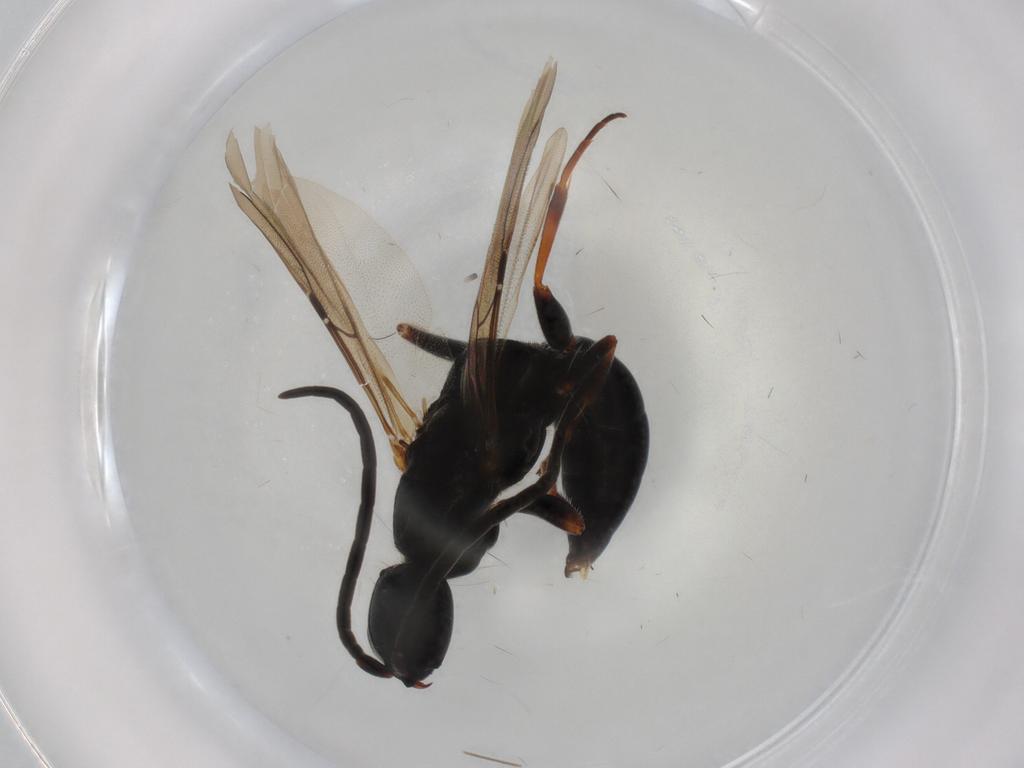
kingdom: Animalia
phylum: Arthropoda
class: Insecta
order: Hymenoptera
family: Bethylidae
